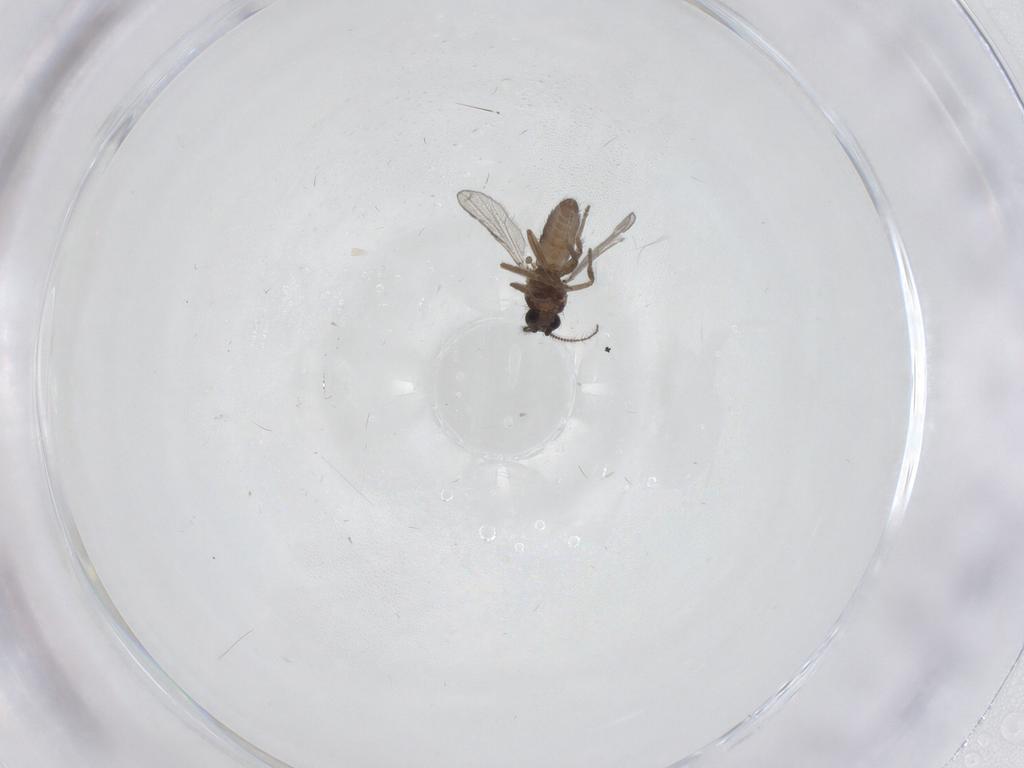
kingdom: Animalia
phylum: Arthropoda
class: Insecta
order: Diptera
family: Ceratopogonidae
